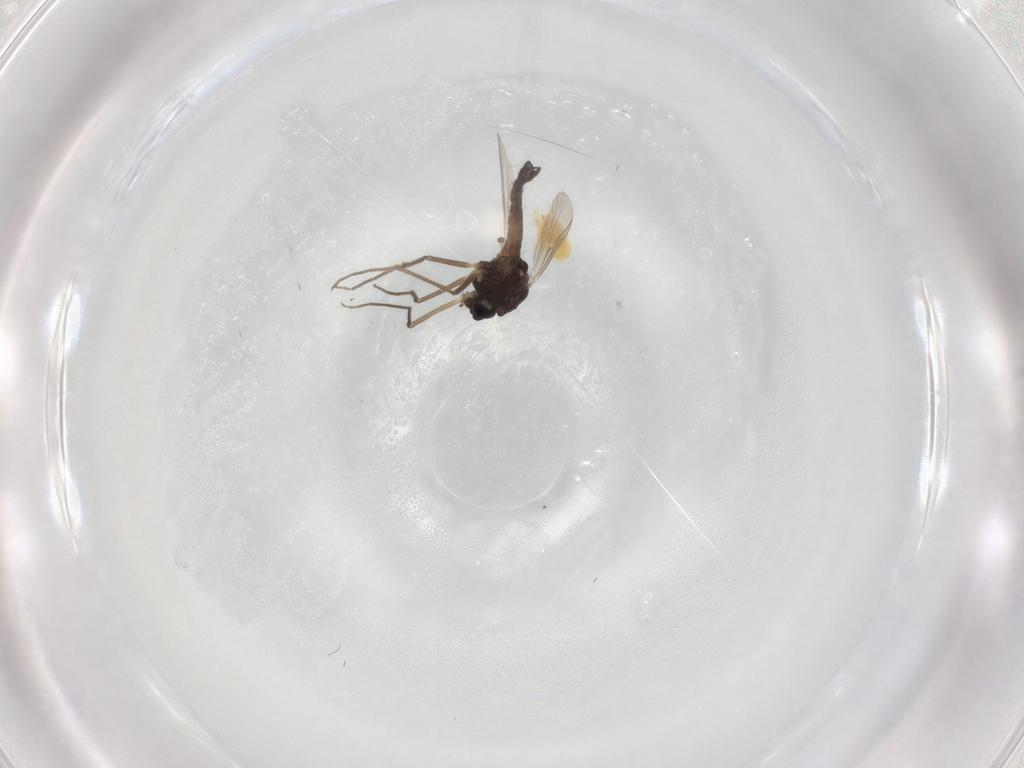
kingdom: Animalia
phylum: Arthropoda
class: Insecta
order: Diptera
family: Chironomidae
